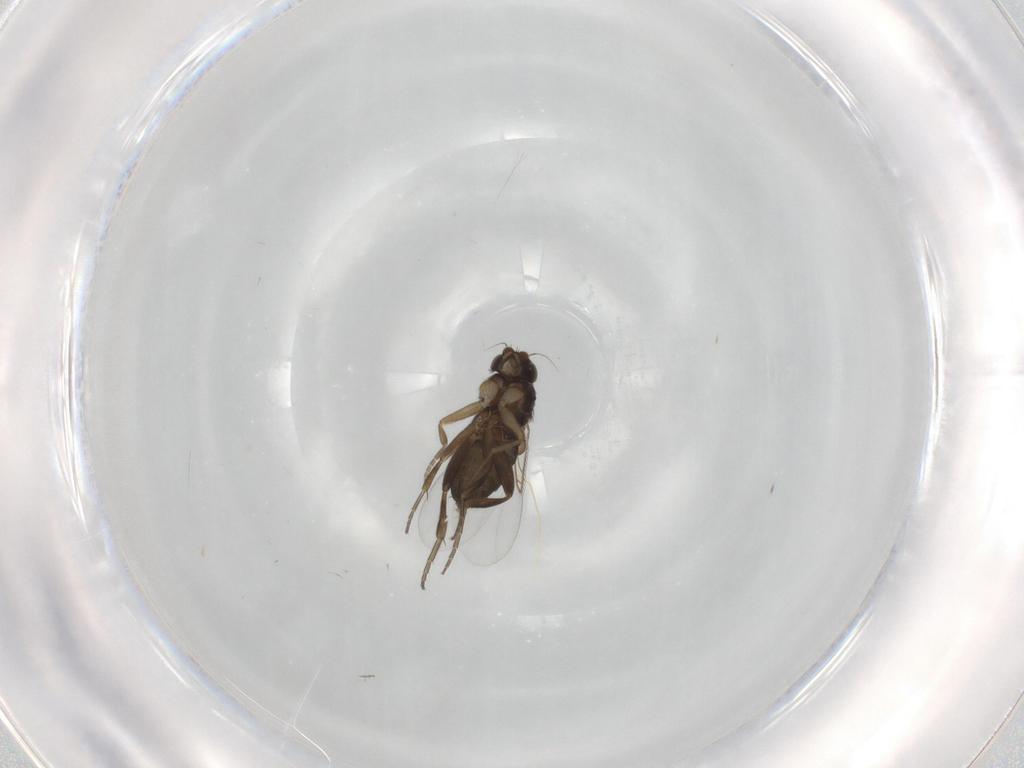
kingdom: Animalia
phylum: Arthropoda
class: Insecta
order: Diptera
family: Phoridae
